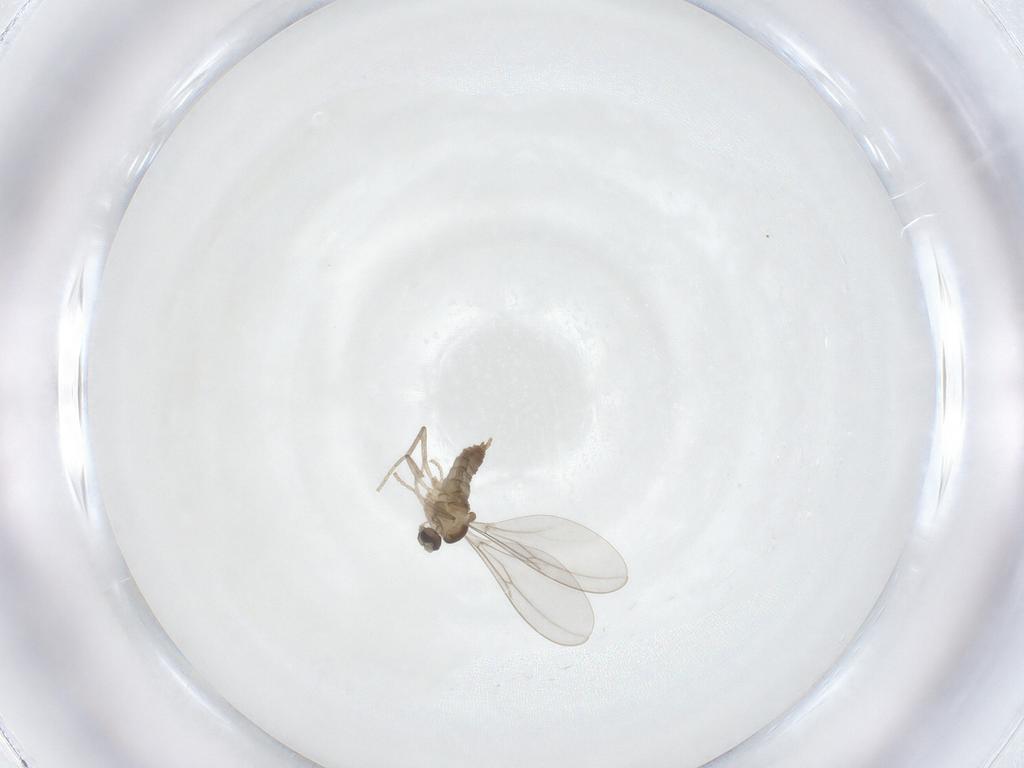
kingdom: Animalia
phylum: Arthropoda
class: Insecta
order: Diptera
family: Cecidomyiidae
